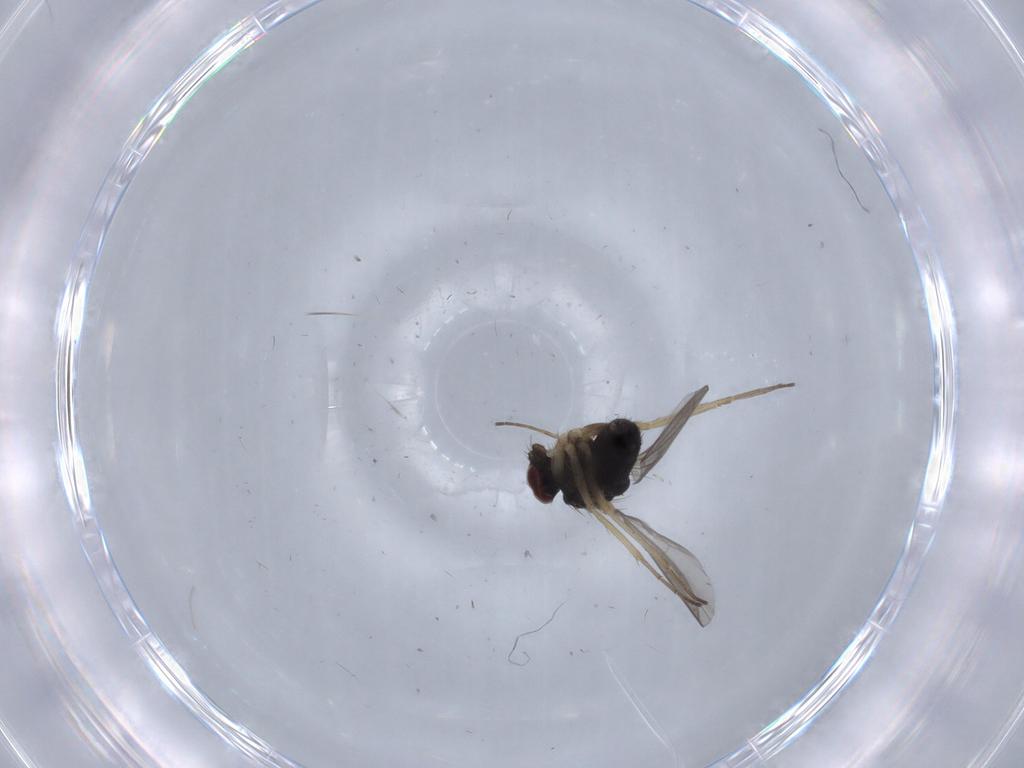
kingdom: Animalia
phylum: Arthropoda
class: Insecta
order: Diptera
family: Dolichopodidae
